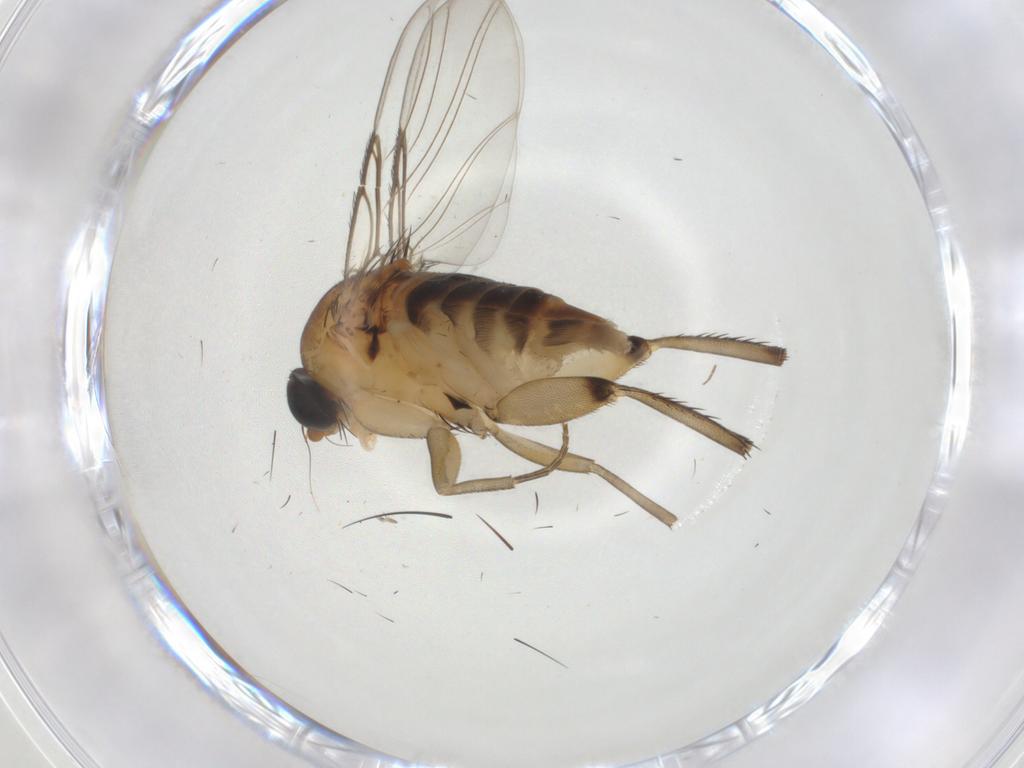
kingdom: Animalia
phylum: Arthropoda
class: Insecta
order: Diptera
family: Phoridae
